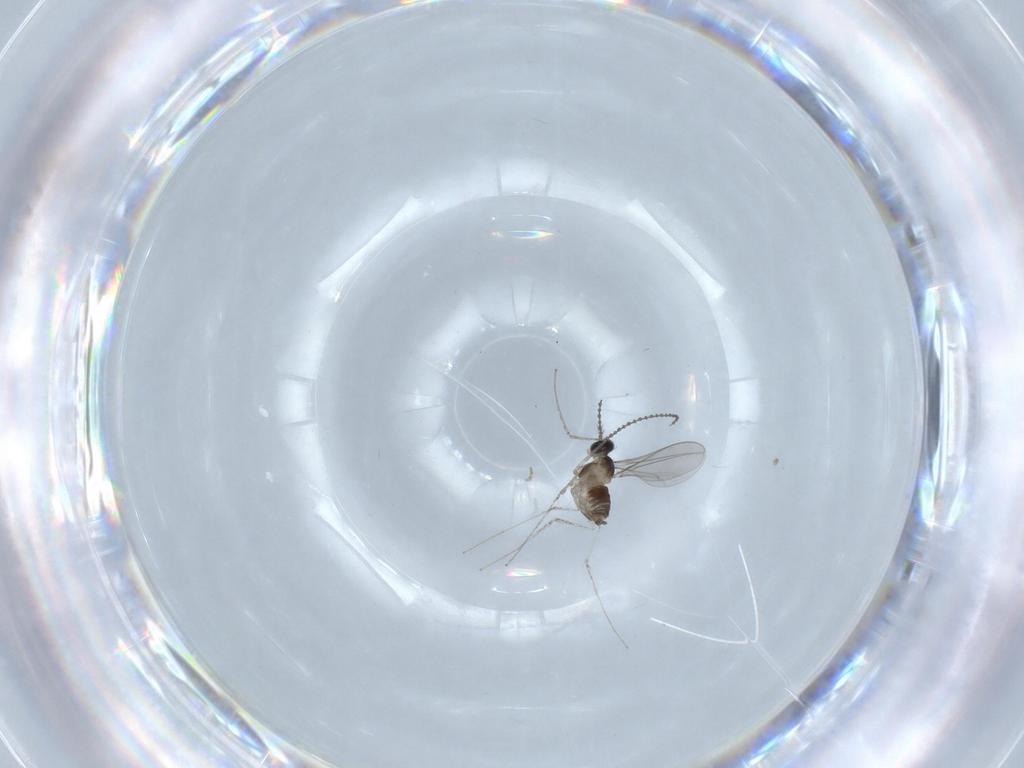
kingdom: Animalia
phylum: Arthropoda
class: Insecta
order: Diptera
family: Cecidomyiidae
